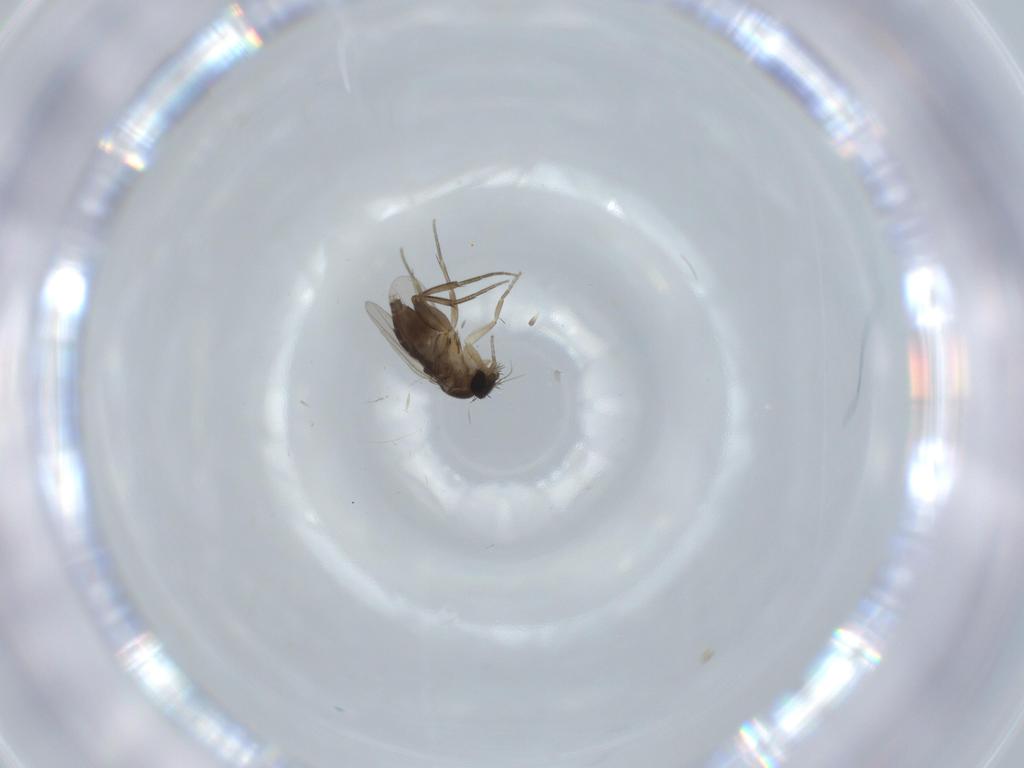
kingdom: Animalia
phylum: Arthropoda
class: Insecta
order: Diptera
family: Phoridae
